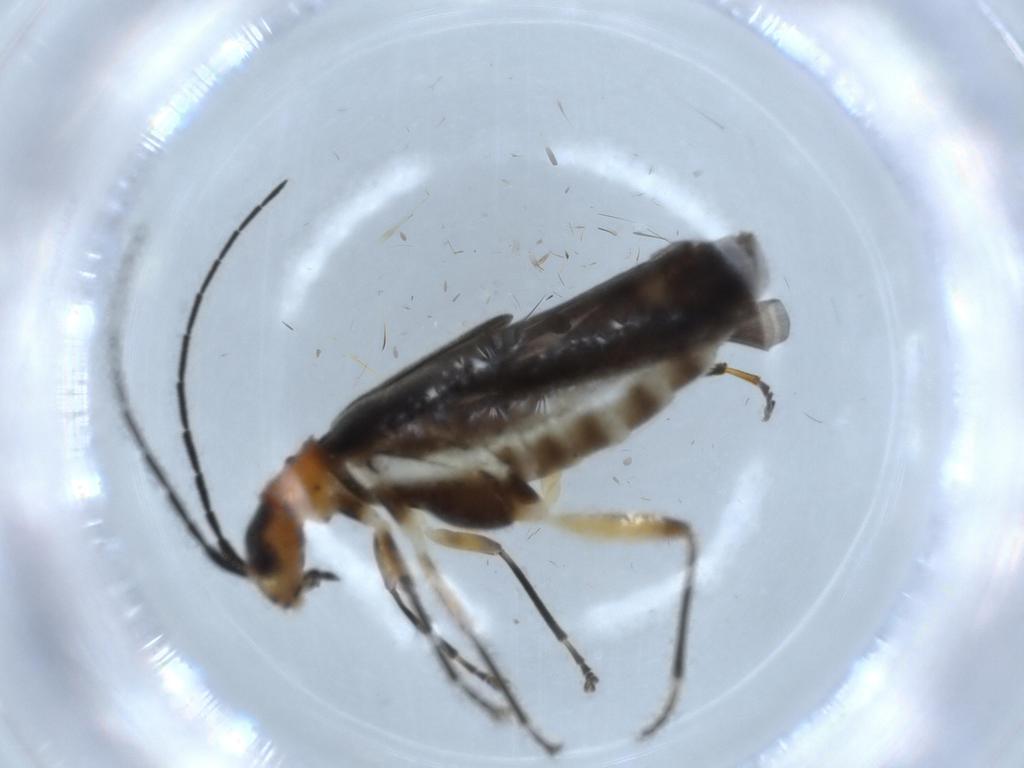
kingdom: Animalia
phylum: Arthropoda
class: Insecta
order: Coleoptera
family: Cantharidae
